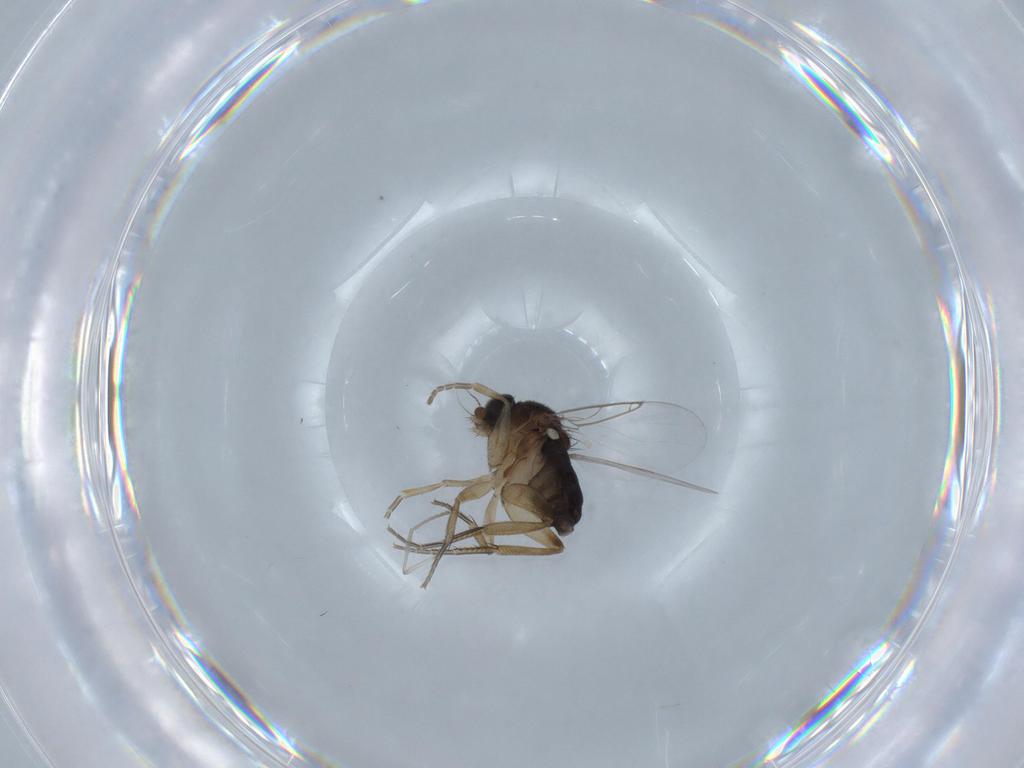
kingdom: Animalia
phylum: Arthropoda
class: Insecta
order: Diptera
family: Phoridae
